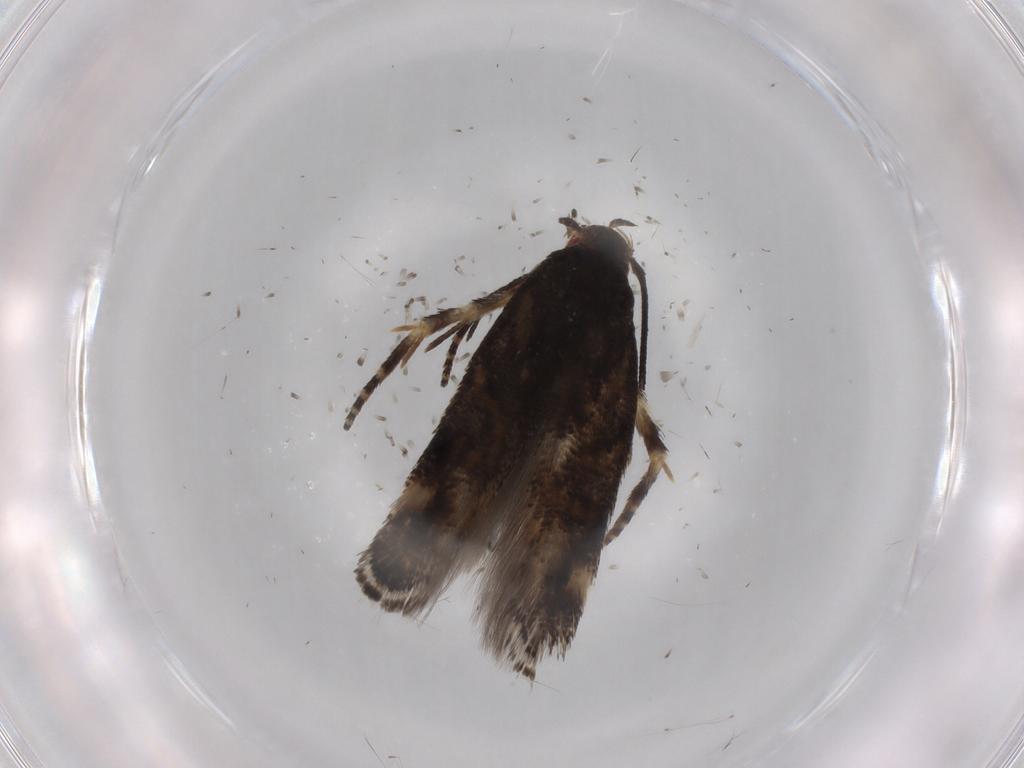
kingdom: Animalia
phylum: Arthropoda
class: Insecta
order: Lepidoptera
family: Momphidae
